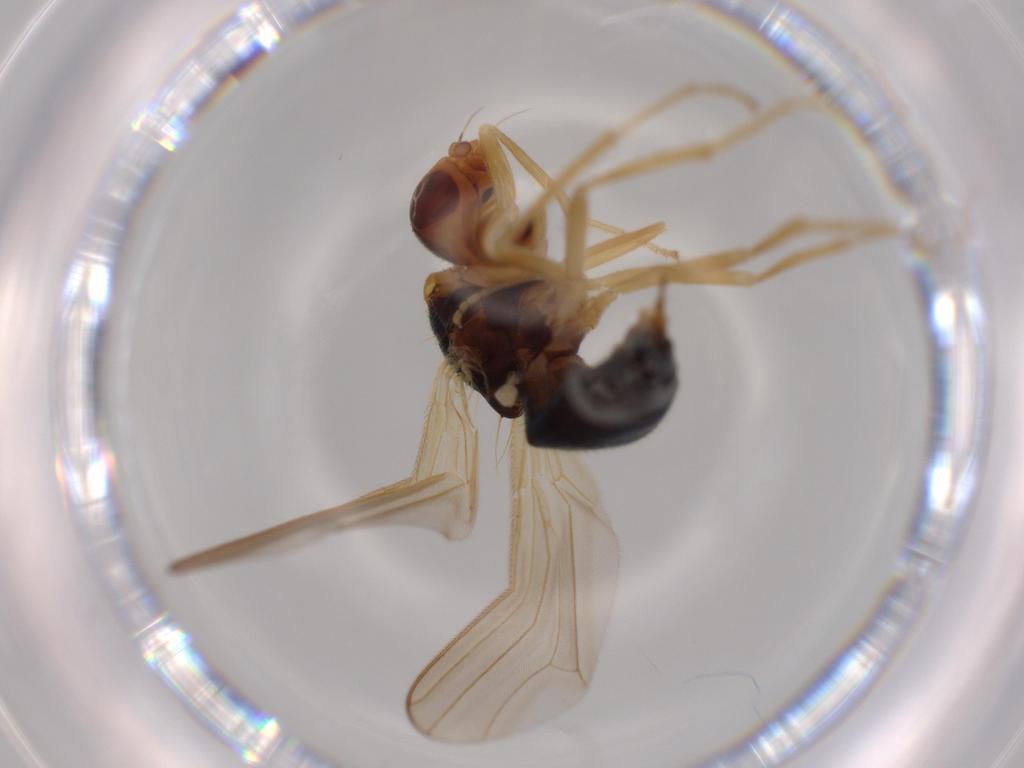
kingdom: Animalia
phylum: Arthropoda
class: Insecta
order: Diptera
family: Psilidae
